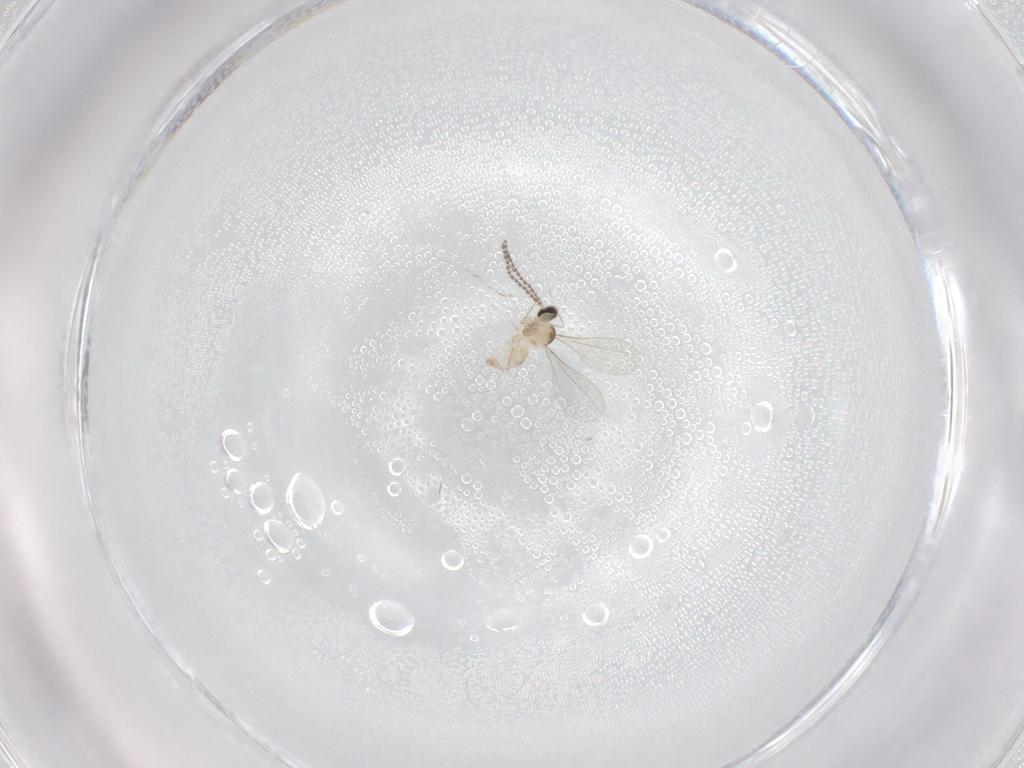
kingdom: Animalia
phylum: Arthropoda
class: Insecta
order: Diptera
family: Cecidomyiidae
